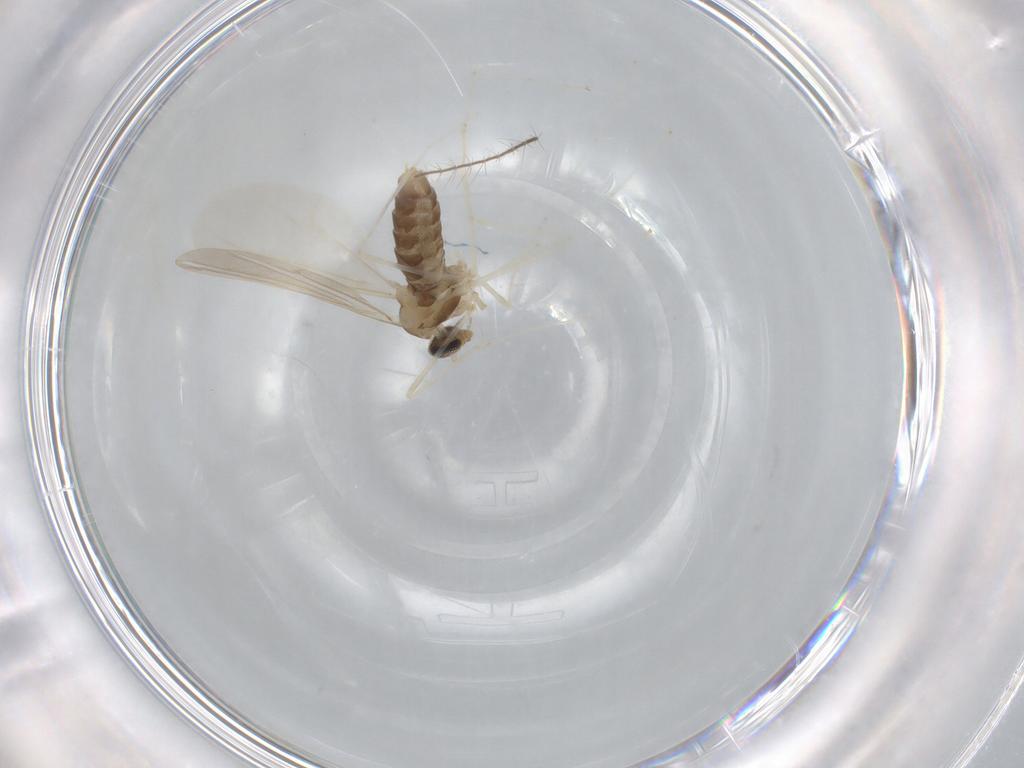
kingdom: Animalia
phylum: Arthropoda
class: Insecta
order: Diptera
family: Cecidomyiidae
